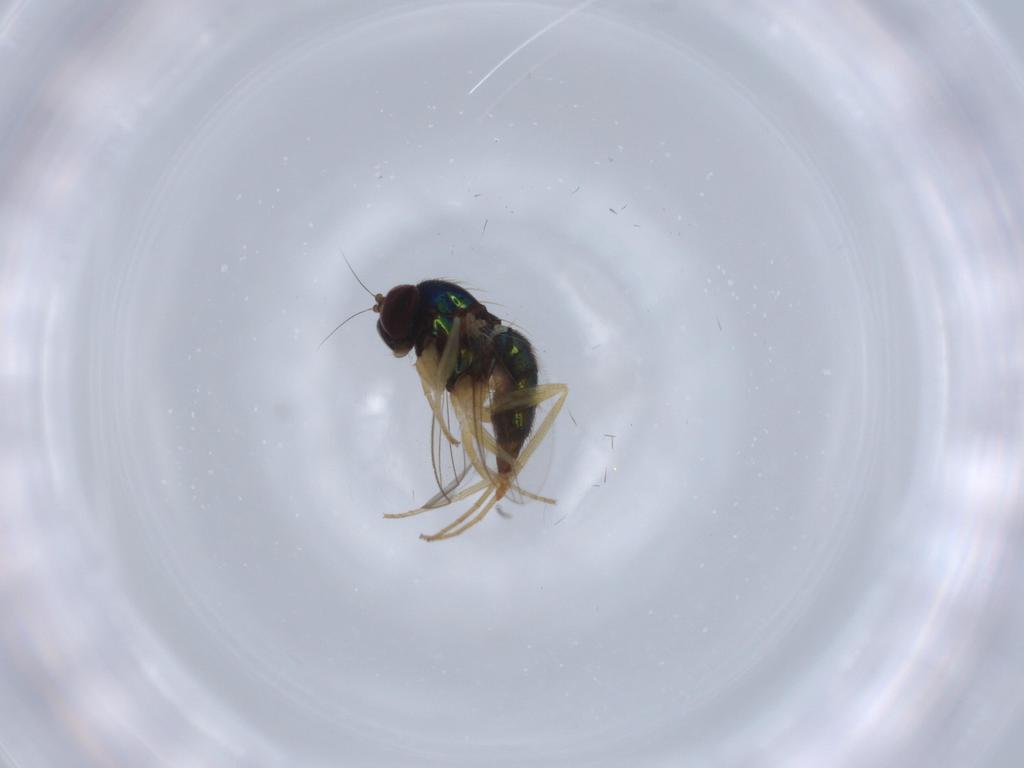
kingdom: Animalia
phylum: Arthropoda
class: Insecta
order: Diptera
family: Dolichopodidae
